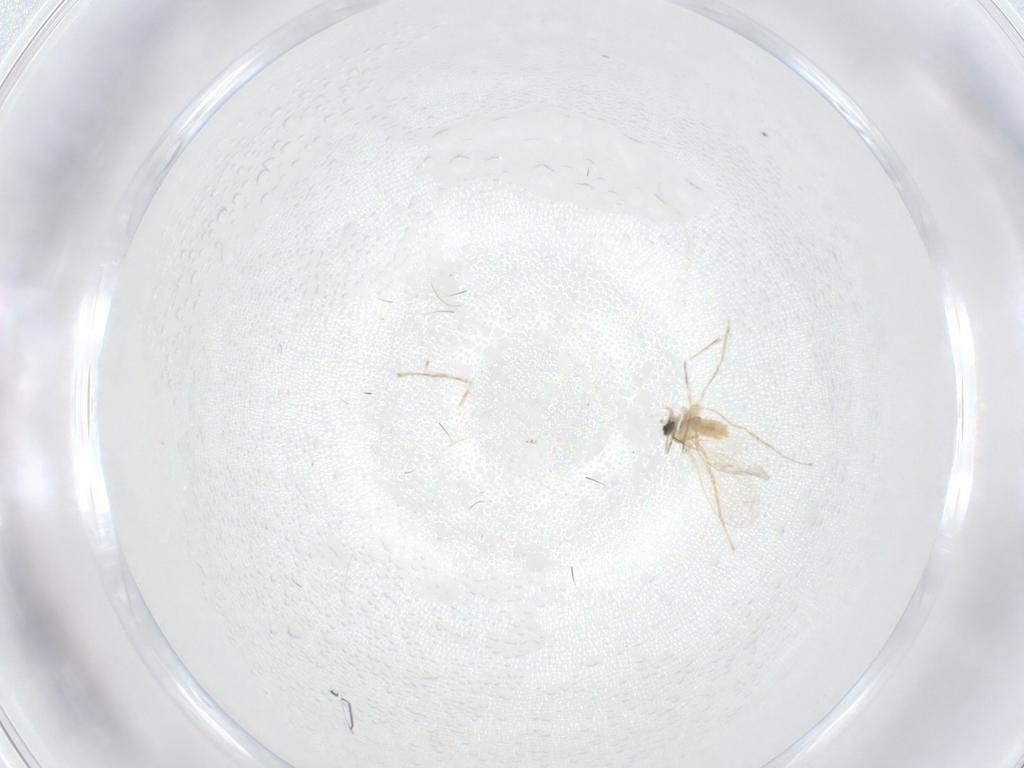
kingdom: Animalia
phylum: Arthropoda
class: Insecta
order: Diptera
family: Cecidomyiidae
